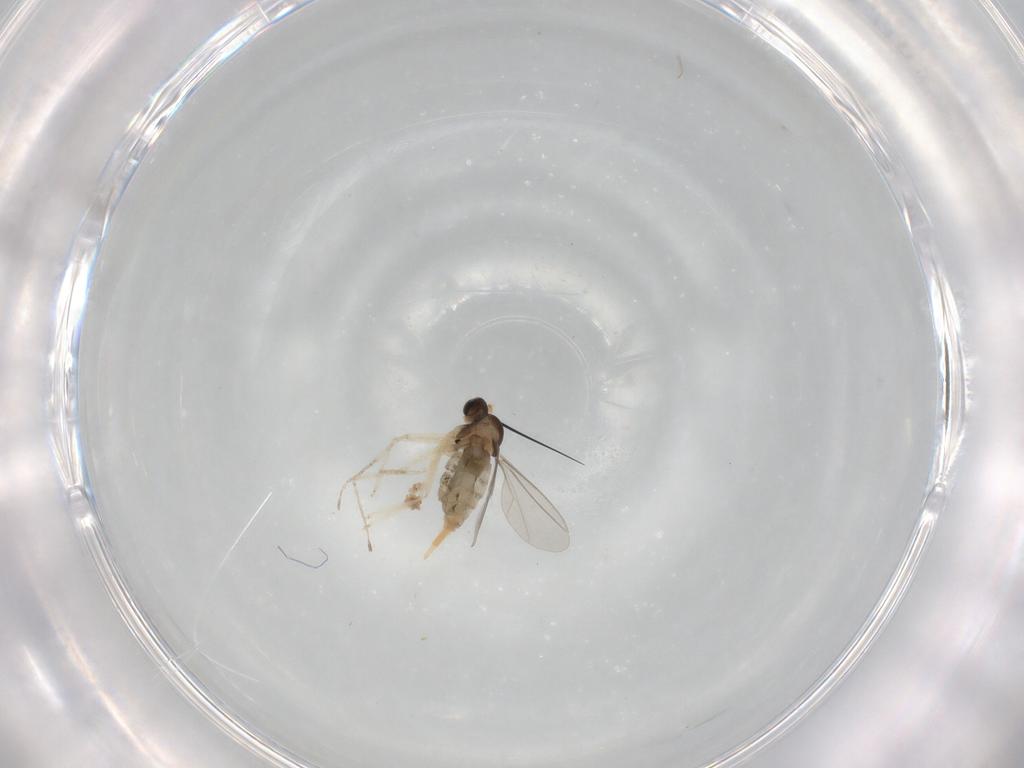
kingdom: Animalia
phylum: Arthropoda
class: Insecta
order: Diptera
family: Cecidomyiidae
